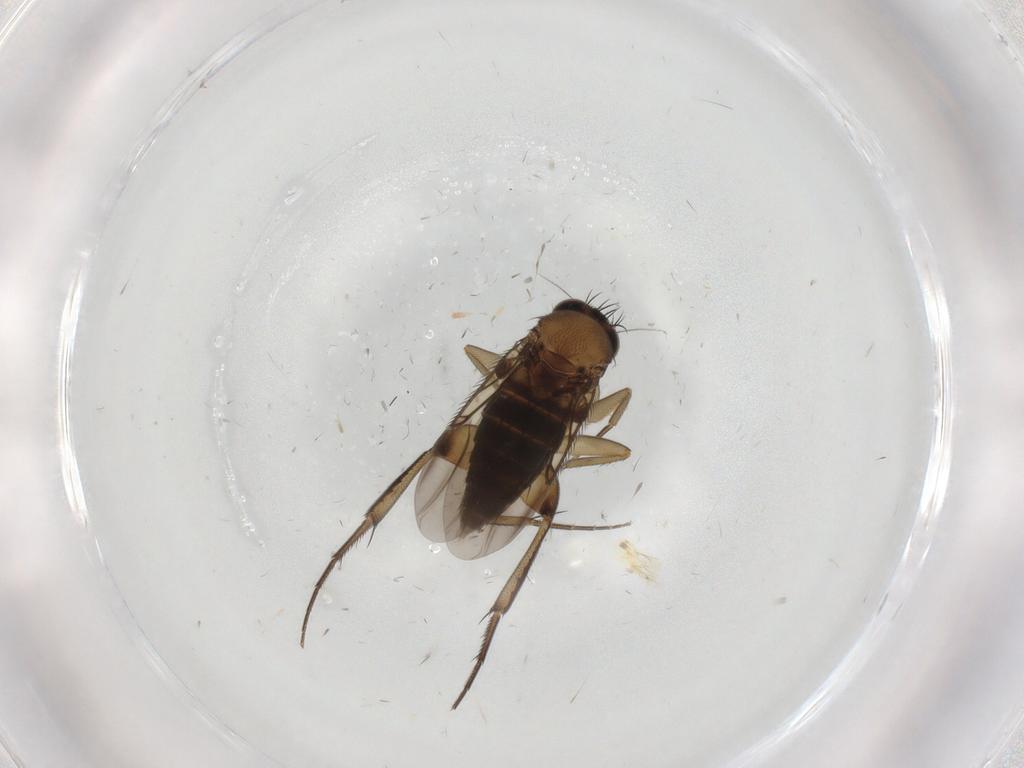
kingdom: Animalia
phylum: Arthropoda
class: Insecta
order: Diptera
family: Phoridae
